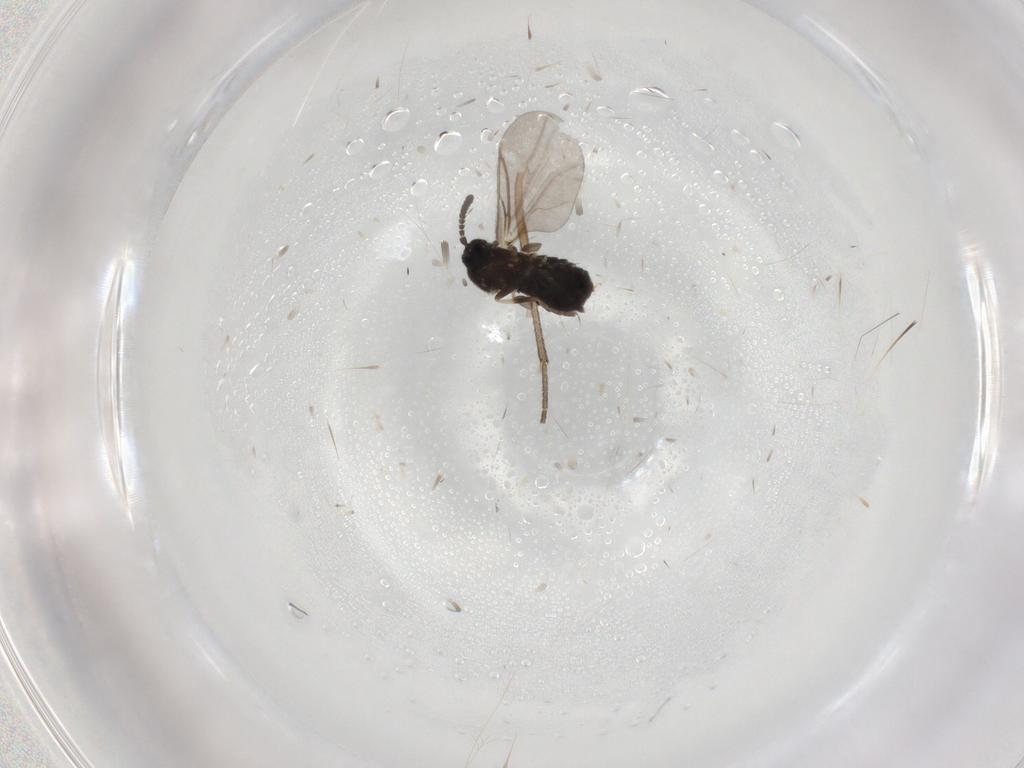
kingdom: Animalia
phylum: Arthropoda
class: Insecta
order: Diptera
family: Scatopsidae
